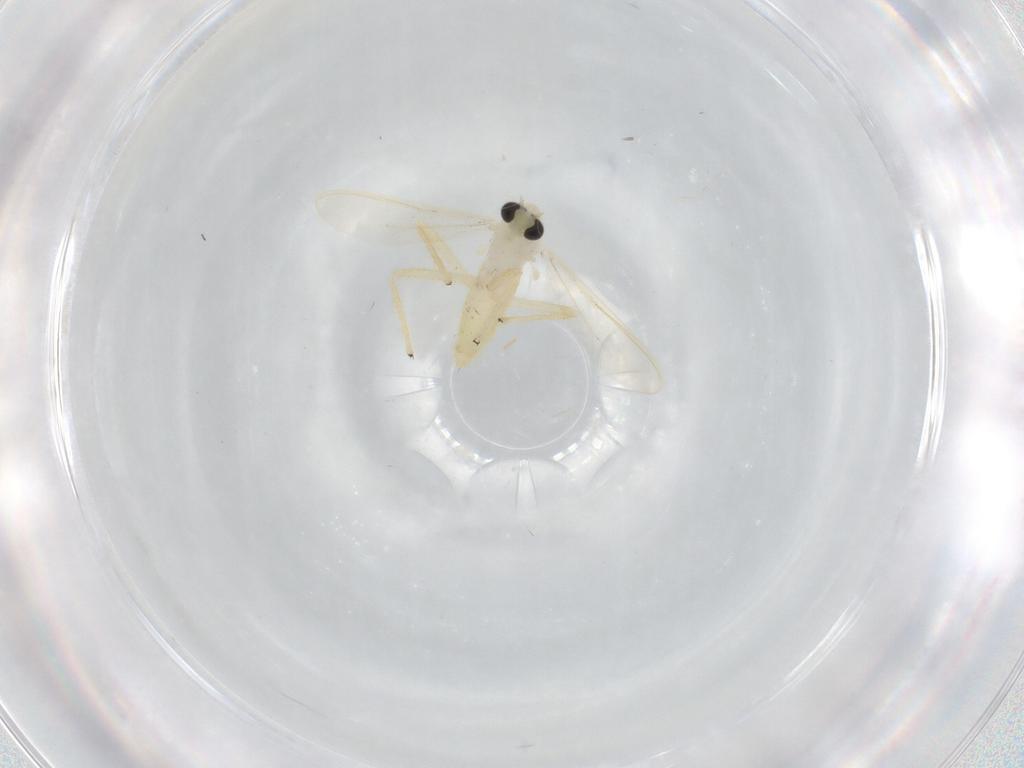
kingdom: Animalia
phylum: Arthropoda
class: Insecta
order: Diptera
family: Chironomidae
